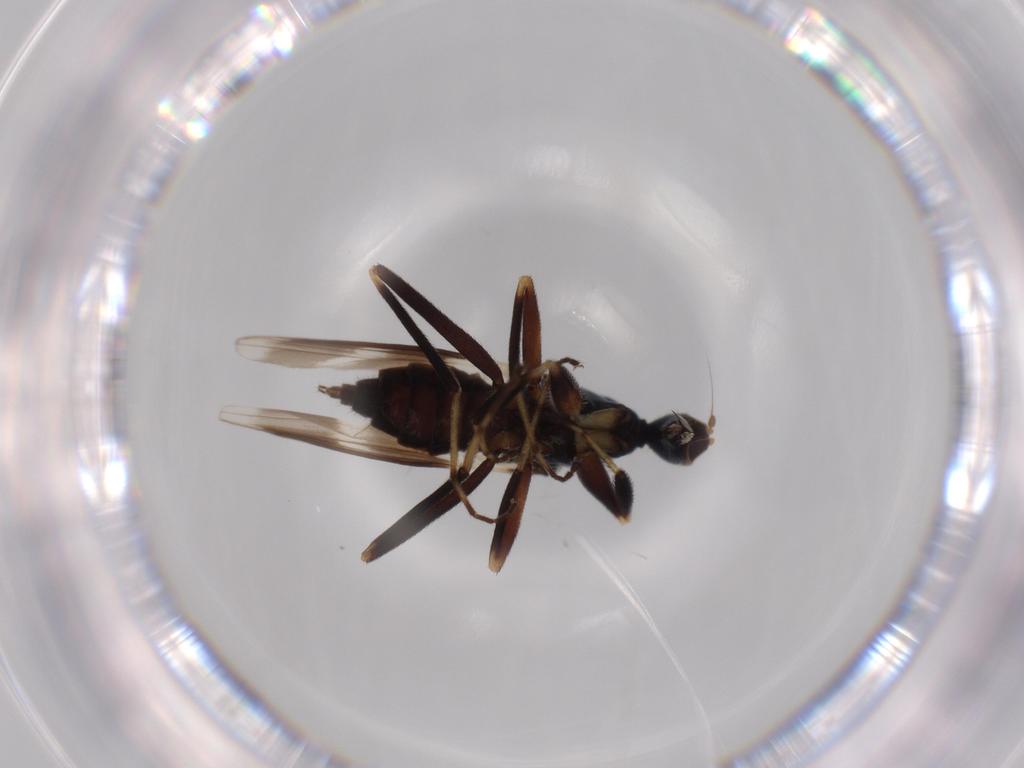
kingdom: Animalia
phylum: Arthropoda
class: Insecta
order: Diptera
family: Hybotidae
